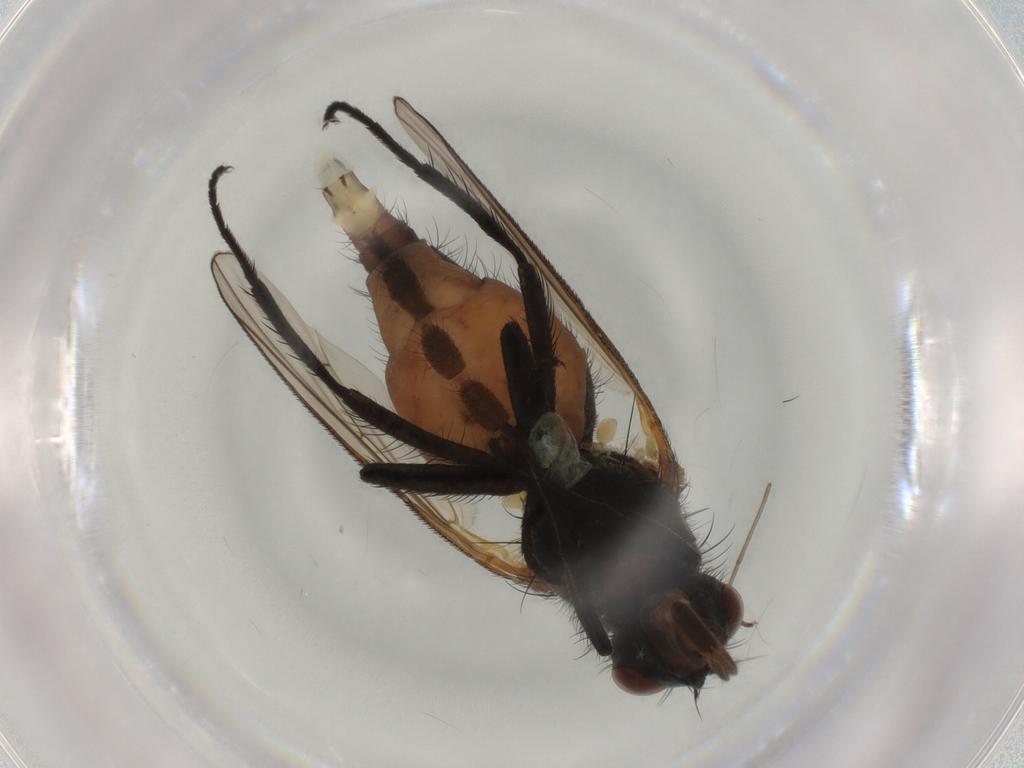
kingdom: Animalia
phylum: Arthropoda
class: Insecta
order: Diptera
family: Anthomyiidae
